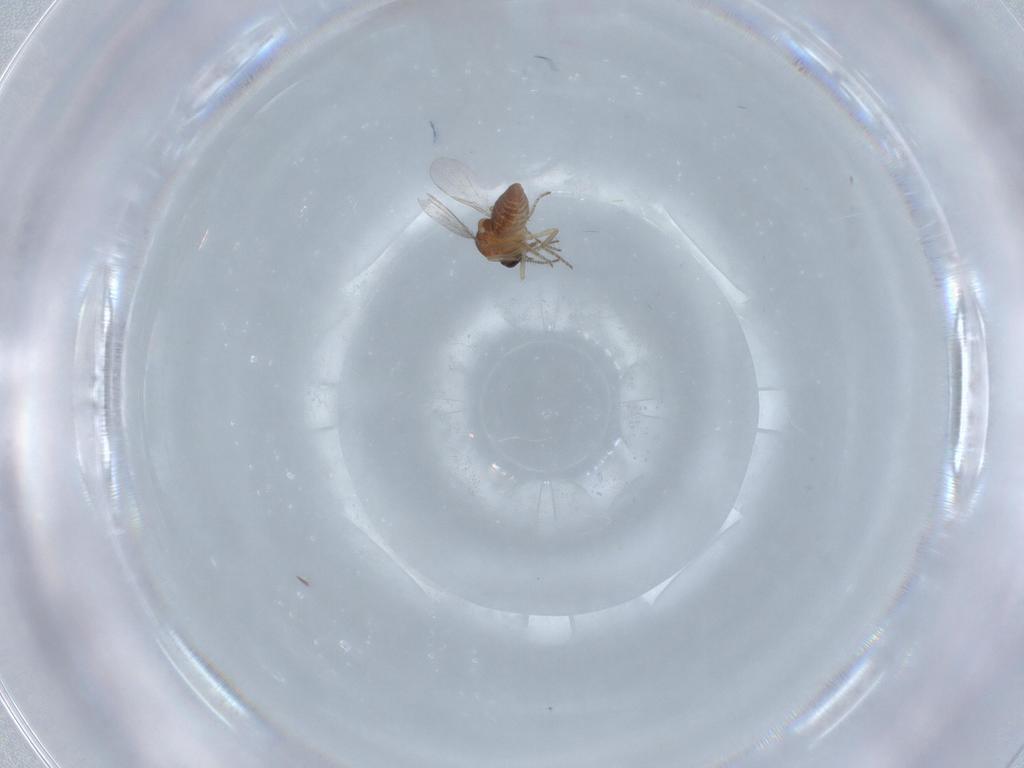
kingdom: Animalia
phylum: Arthropoda
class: Insecta
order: Diptera
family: Ceratopogonidae
